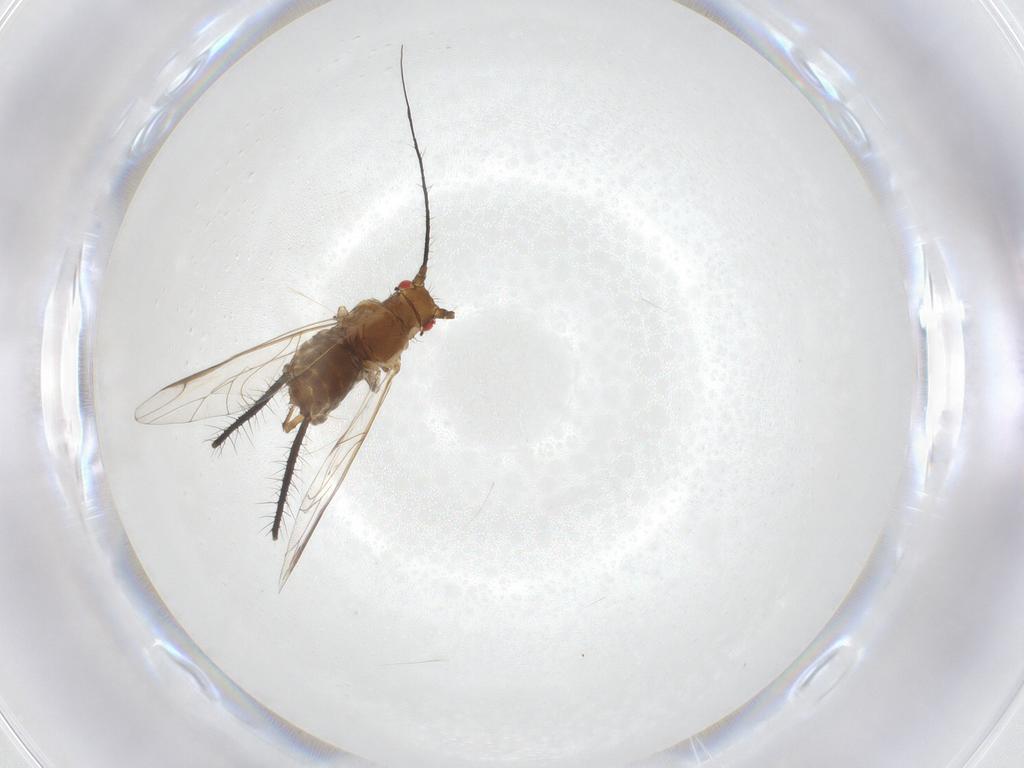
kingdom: Animalia
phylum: Arthropoda
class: Insecta
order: Hemiptera
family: Aphididae
